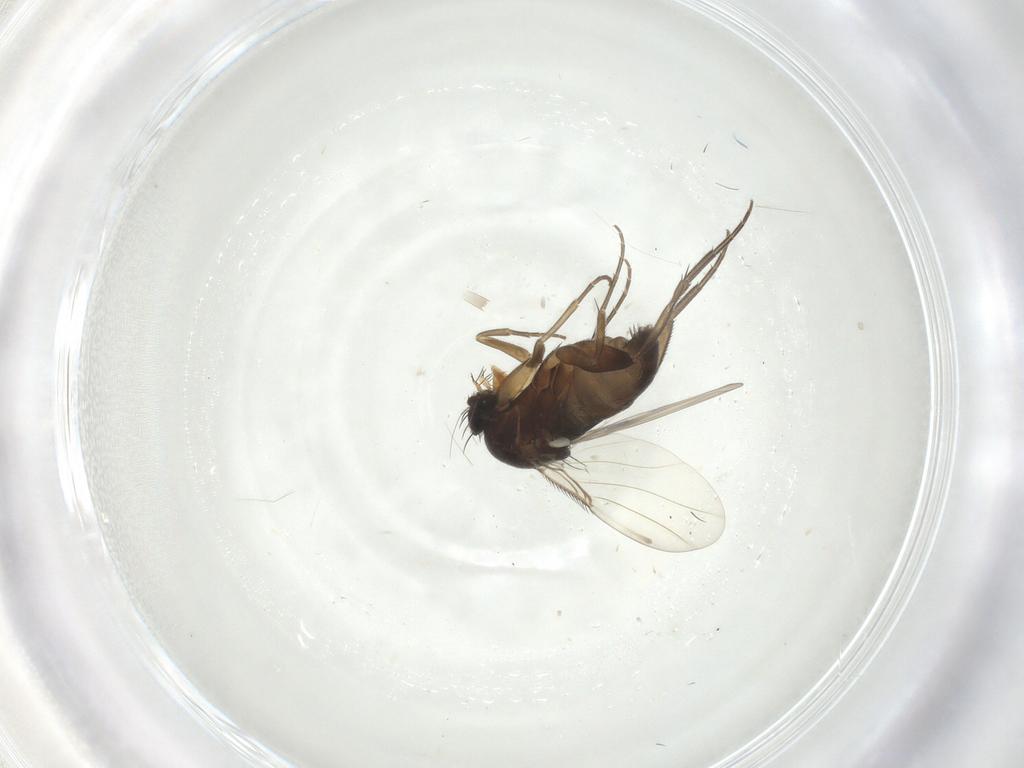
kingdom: Animalia
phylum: Arthropoda
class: Insecta
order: Diptera
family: Phoridae
